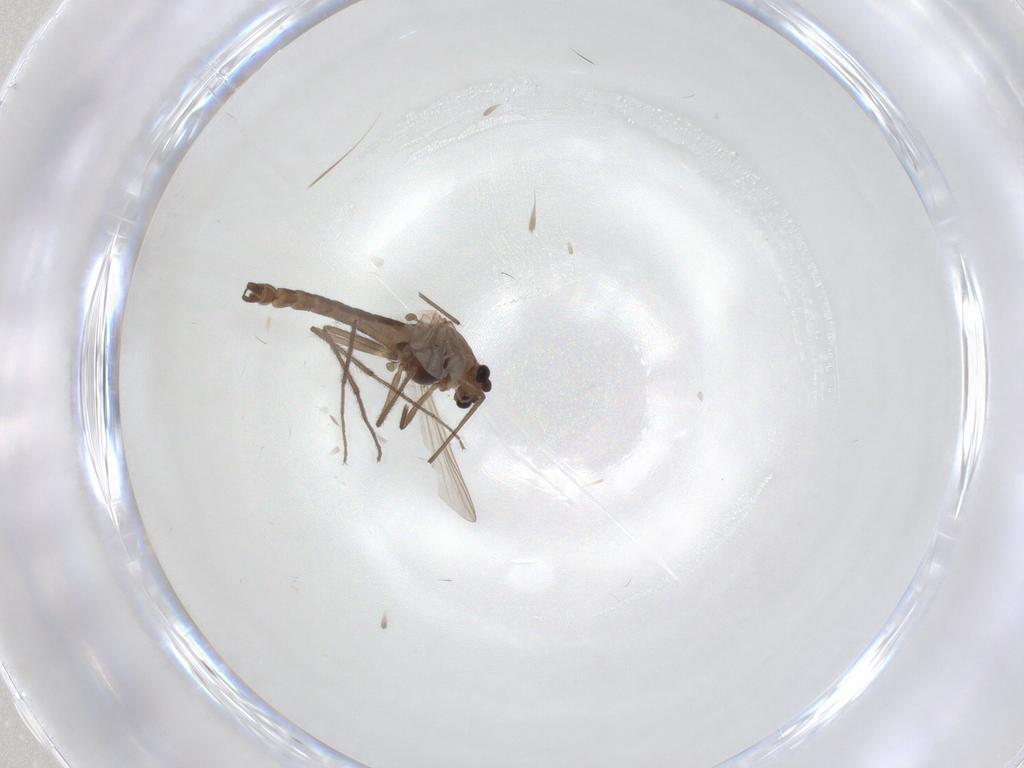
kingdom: Animalia
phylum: Arthropoda
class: Insecta
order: Diptera
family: Chironomidae
